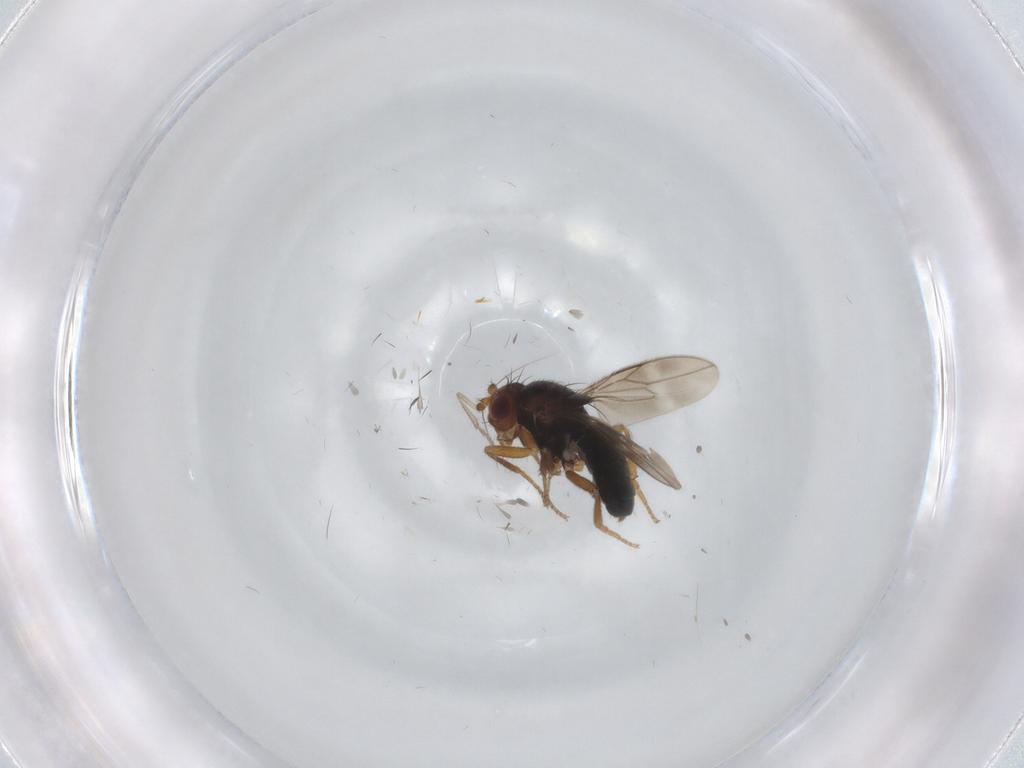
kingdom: Animalia
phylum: Arthropoda
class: Insecta
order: Diptera
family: Sphaeroceridae
